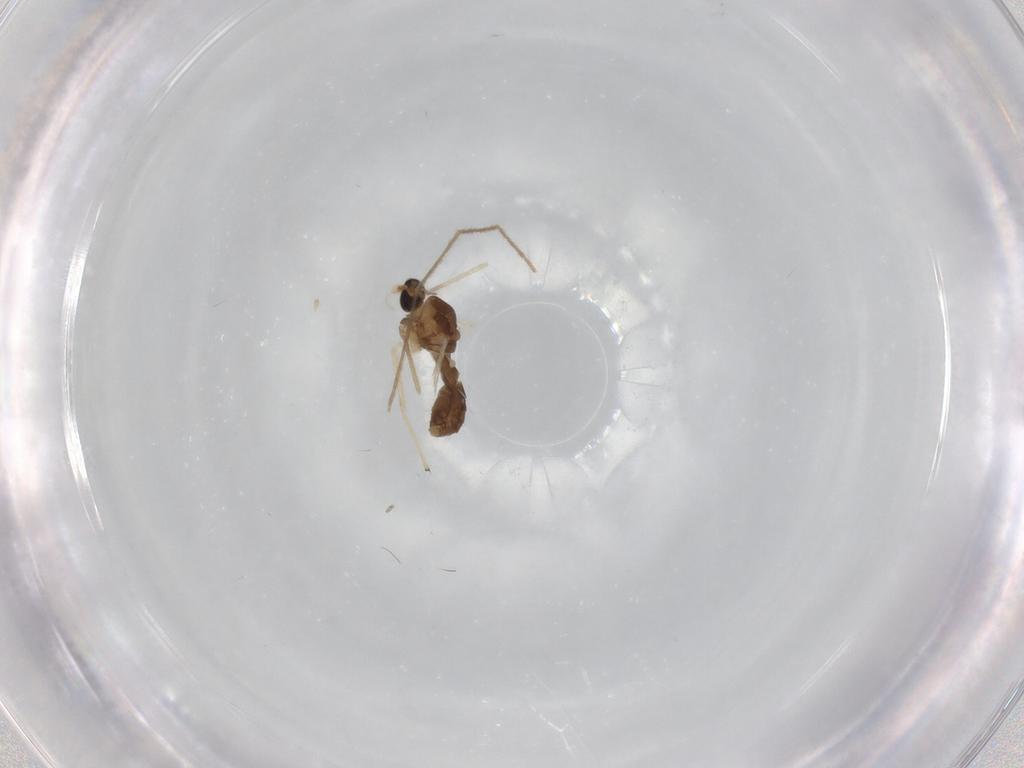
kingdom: Animalia
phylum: Arthropoda
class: Insecta
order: Diptera
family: Chironomidae
